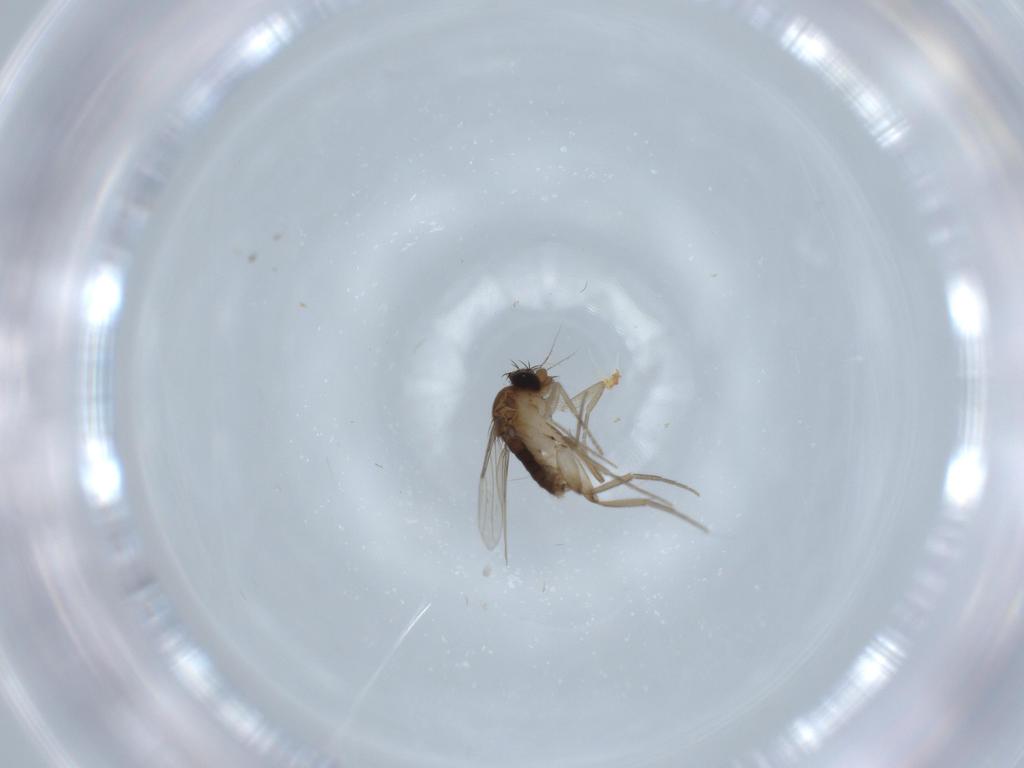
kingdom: Animalia
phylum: Arthropoda
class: Insecta
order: Diptera
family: Phoridae
